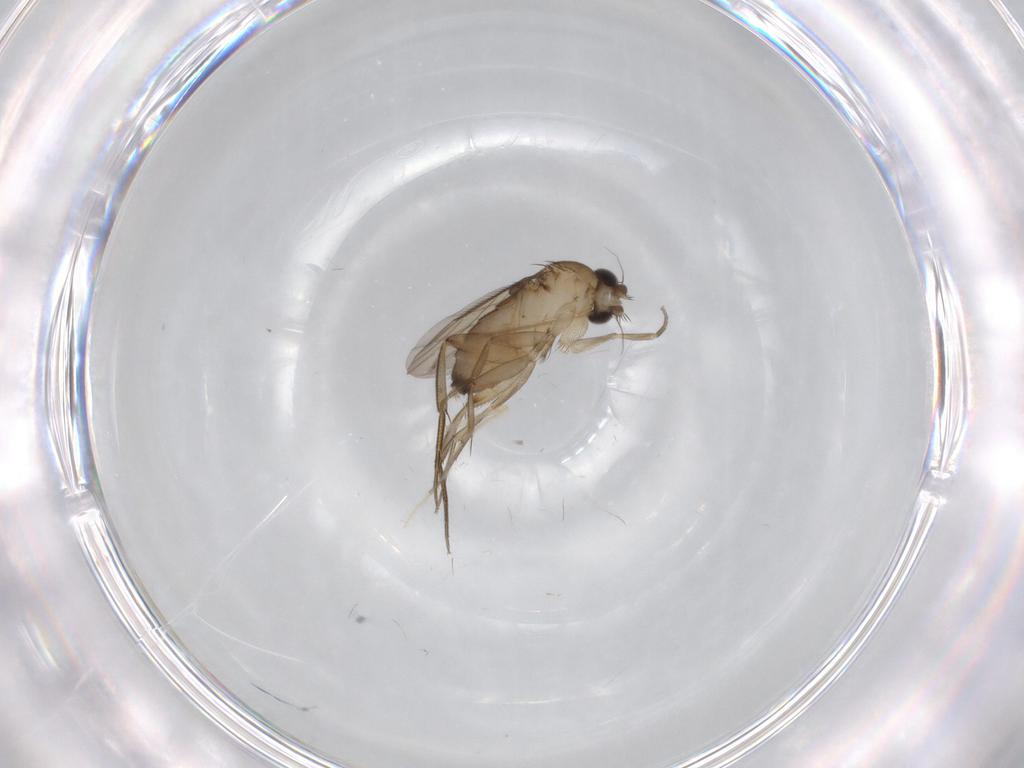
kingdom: Animalia
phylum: Arthropoda
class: Insecta
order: Diptera
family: Phoridae
